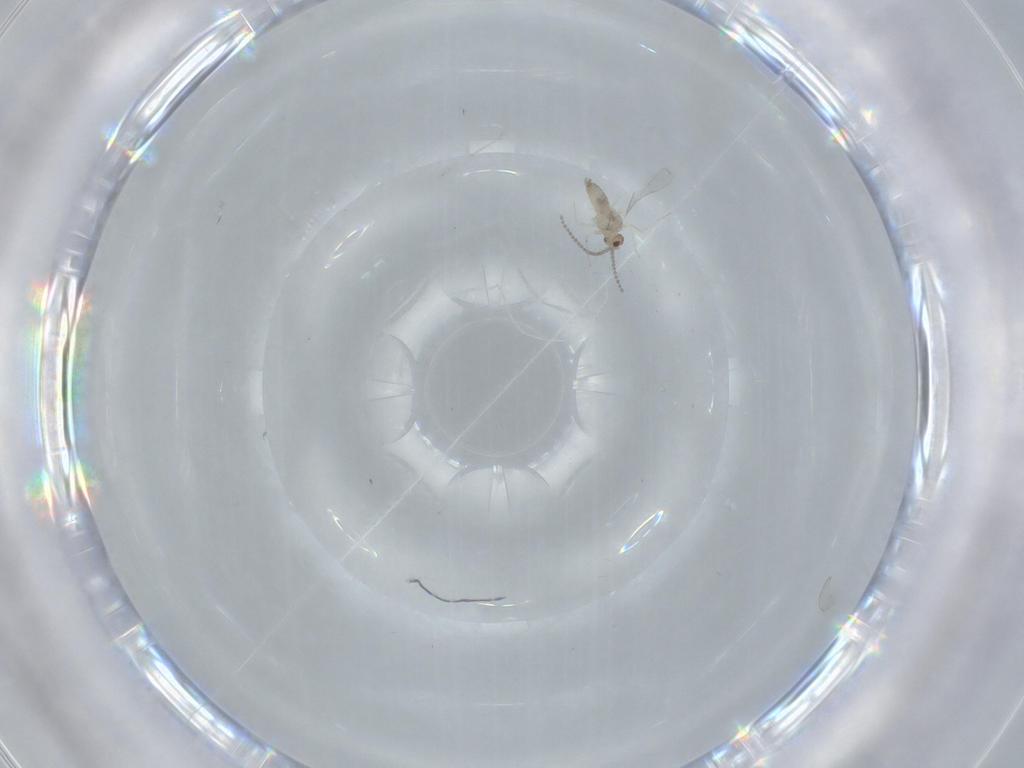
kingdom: Animalia
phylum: Arthropoda
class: Insecta
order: Diptera
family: Cecidomyiidae
